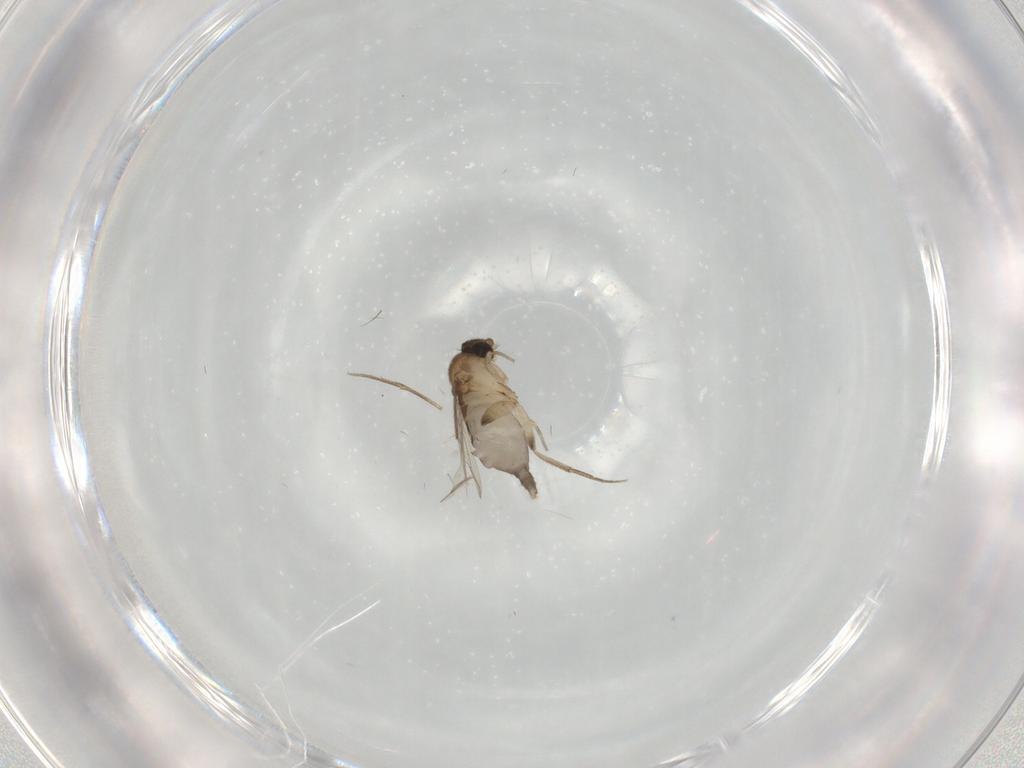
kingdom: Animalia
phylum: Arthropoda
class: Insecta
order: Diptera
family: Phoridae
